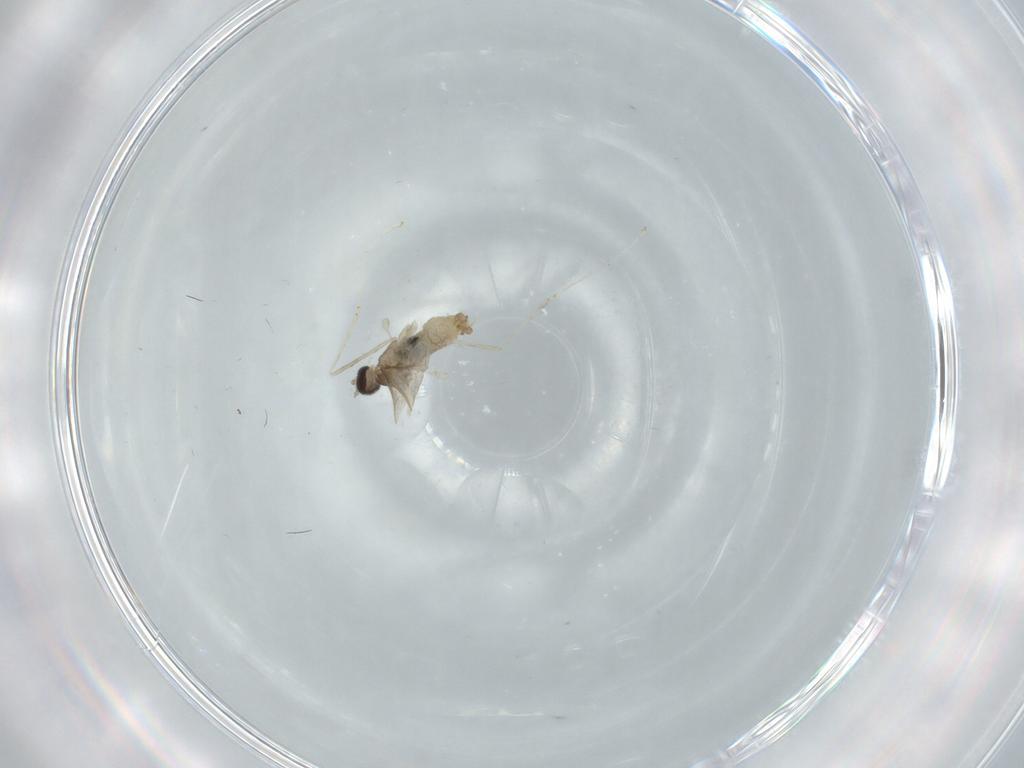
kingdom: Animalia
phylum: Arthropoda
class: Insecta
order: Diptera
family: Cecidomyiidae
